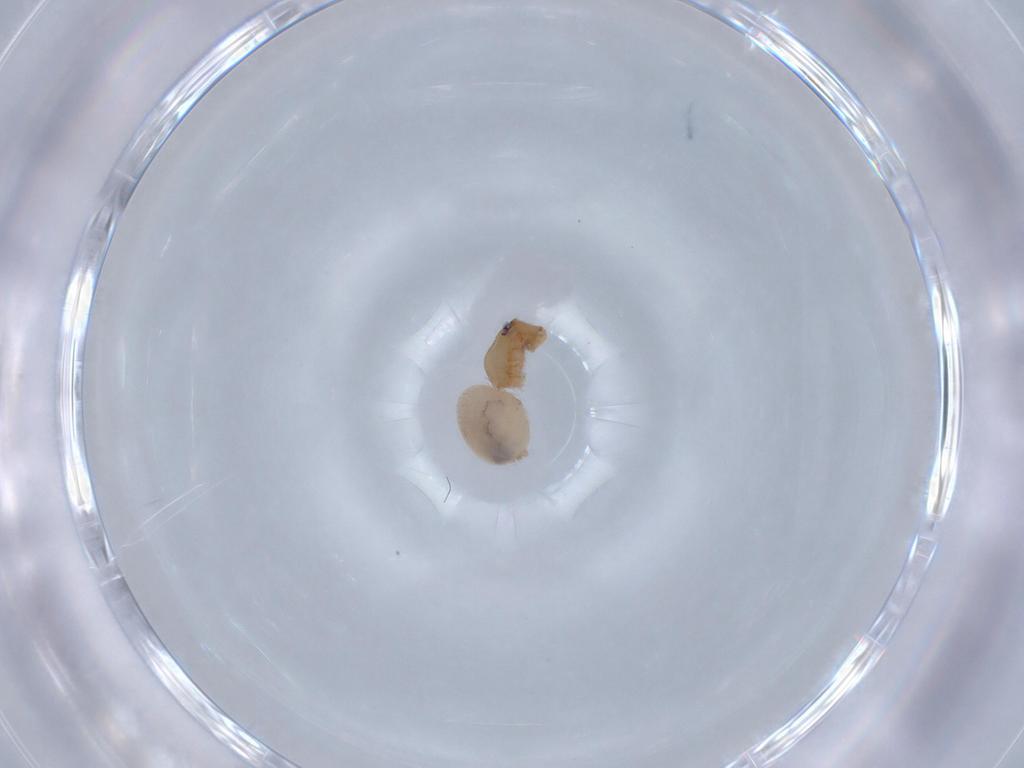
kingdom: Animalia
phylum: Arthropoda
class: Arachnida
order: Araneae
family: Oonopidae
